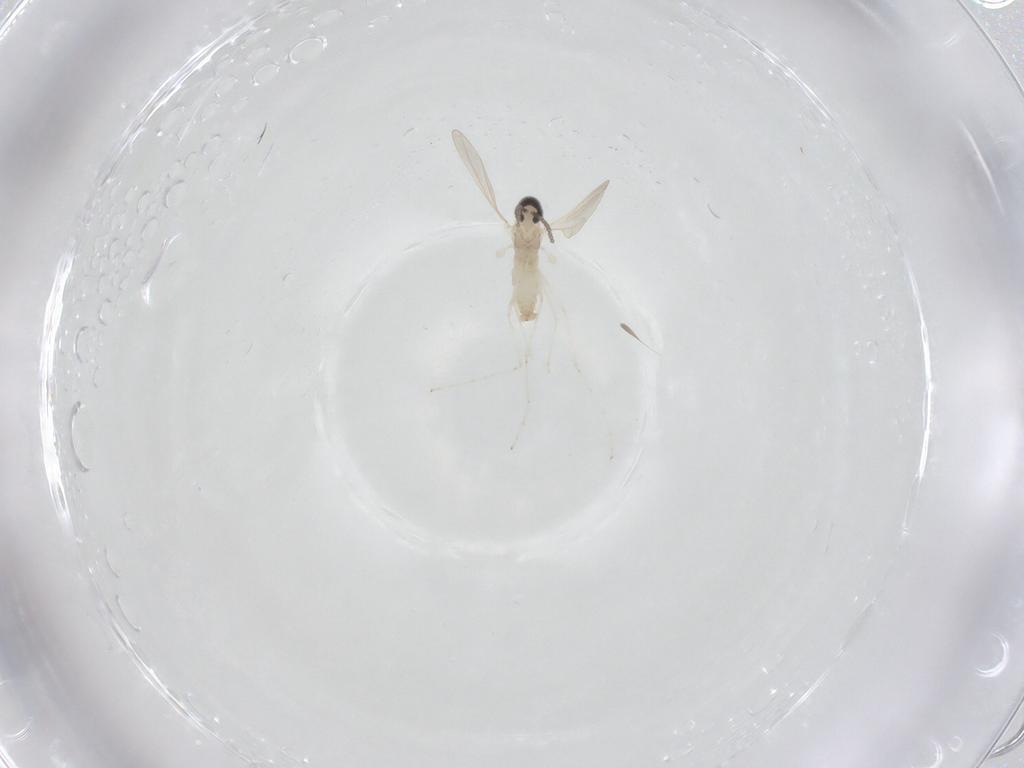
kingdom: Animalia
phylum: Arthropoda
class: Insecta
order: Diptera
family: Cecidomyiidae
